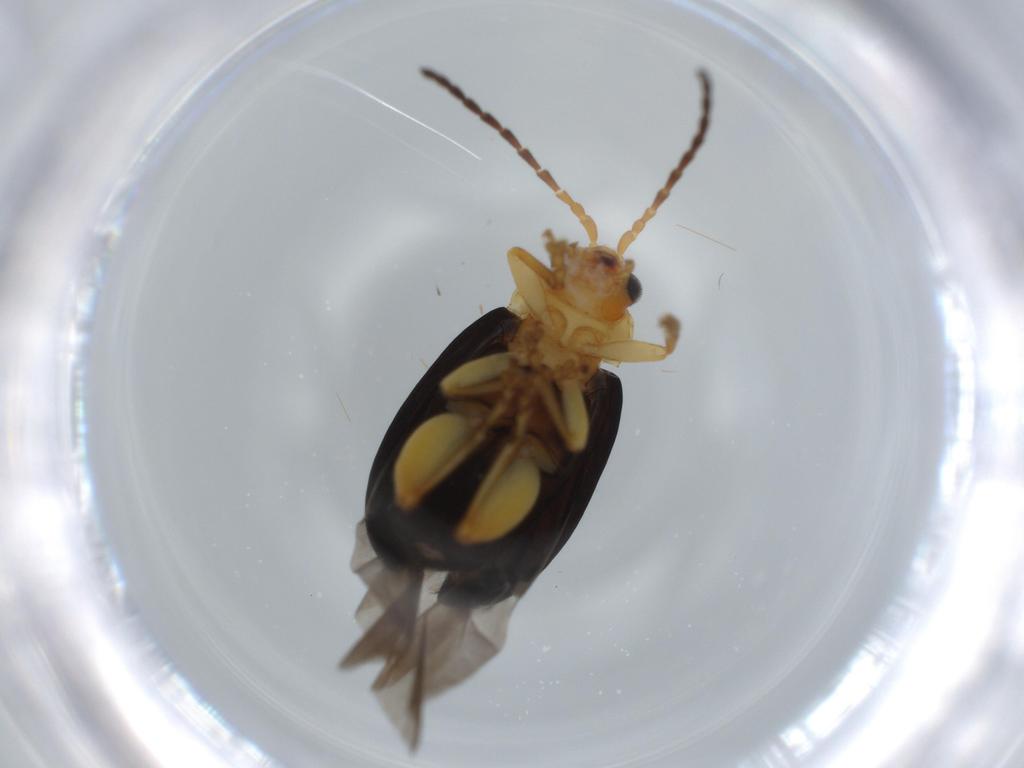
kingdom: Animalia
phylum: Arthropoda
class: Insecta
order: Coleoptera
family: Chrysomelidae
